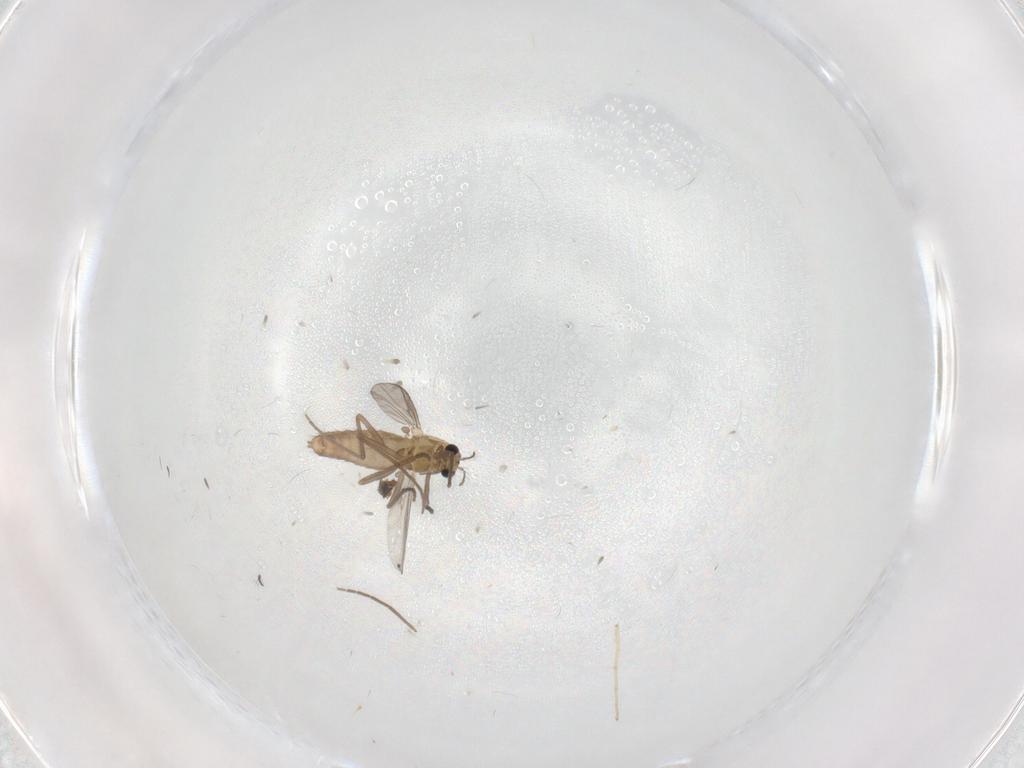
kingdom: Animalia
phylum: Arthropoda
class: Insecta
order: Diptera
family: Chironomidae
